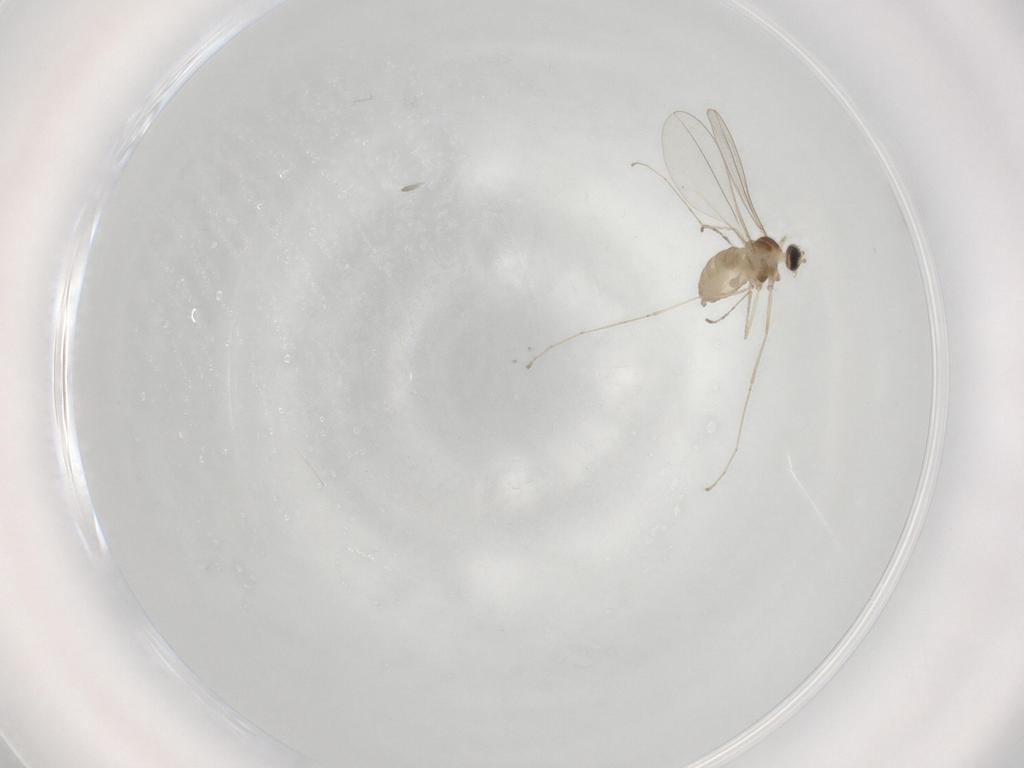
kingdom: Animalia
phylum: Arthropoda
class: Insecta
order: Diptera
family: Cecidomyiidae
